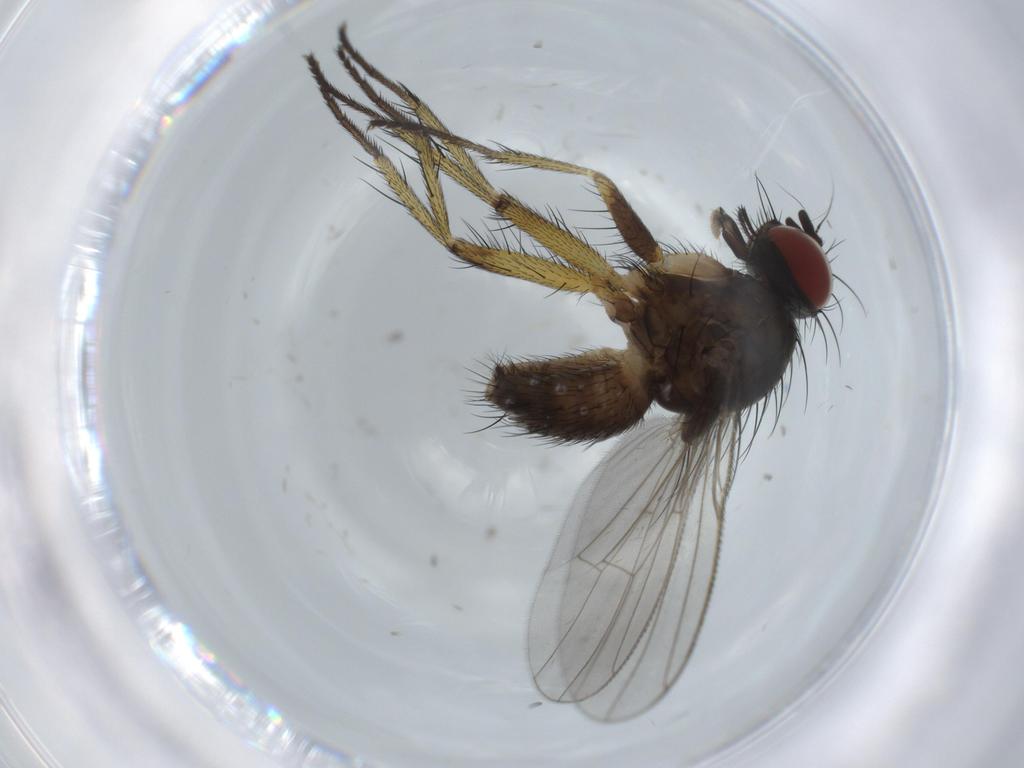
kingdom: Animalia
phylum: Arthropoda
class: Insecta
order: Diptera
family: Muscidae
